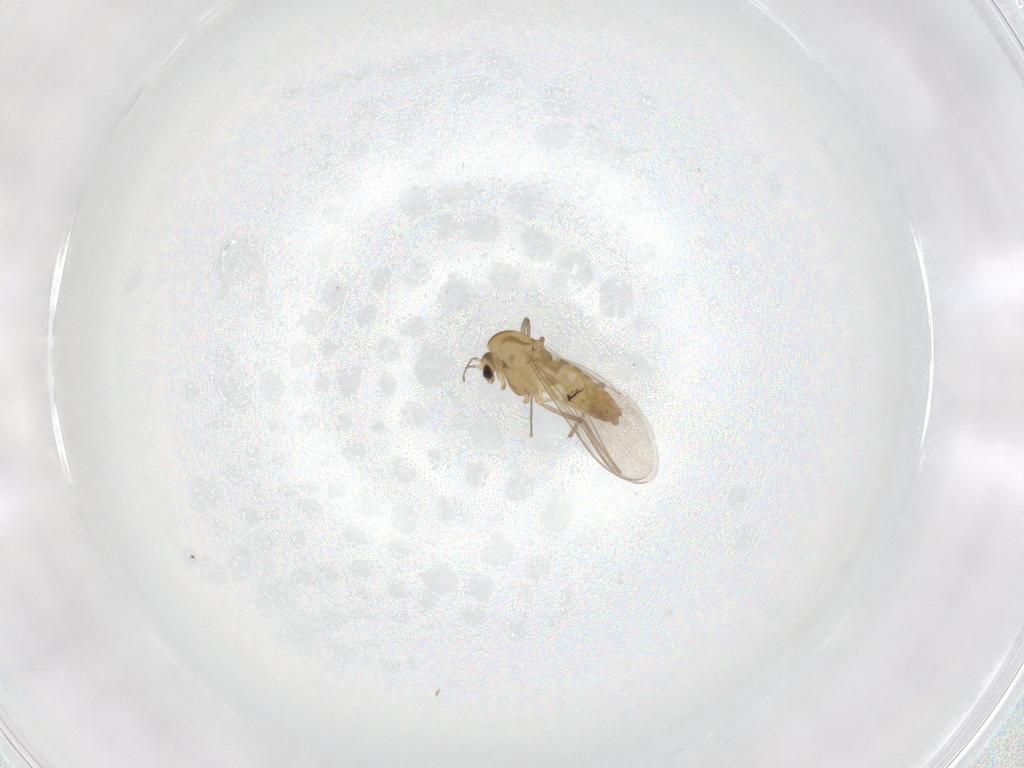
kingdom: Animalia
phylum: Arthropoda
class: Insecta
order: Diptera
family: Chironomidae
